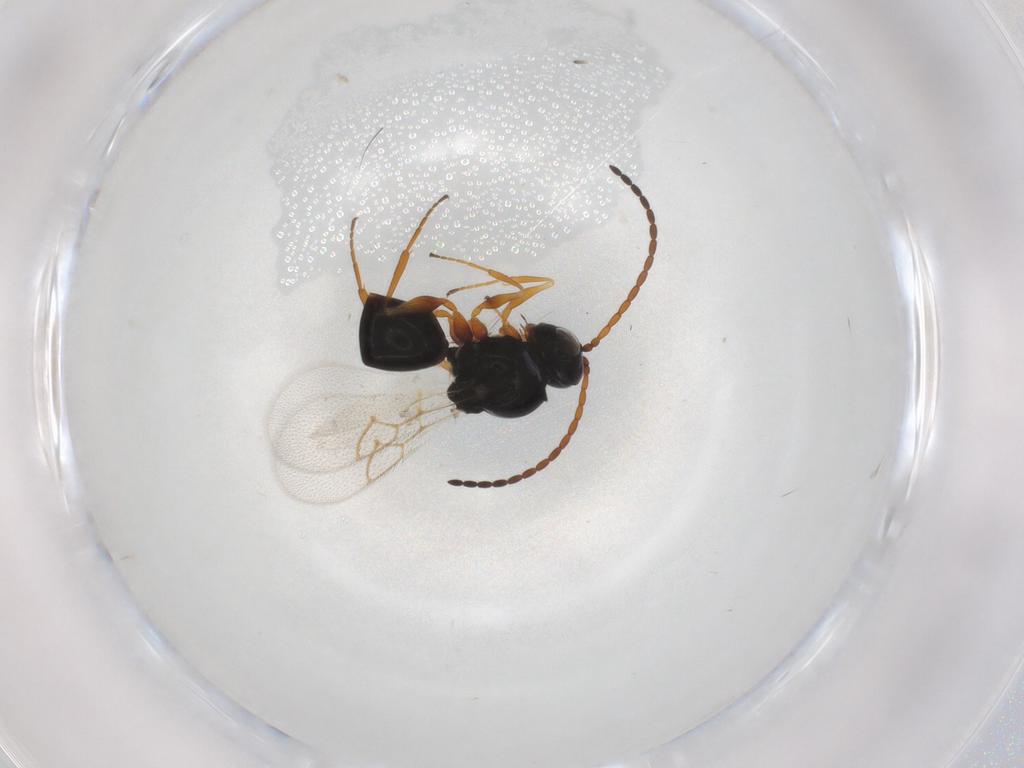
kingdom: Animalia
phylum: Arthropoda
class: Insecta
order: Hymenoptera
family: Figitidae
